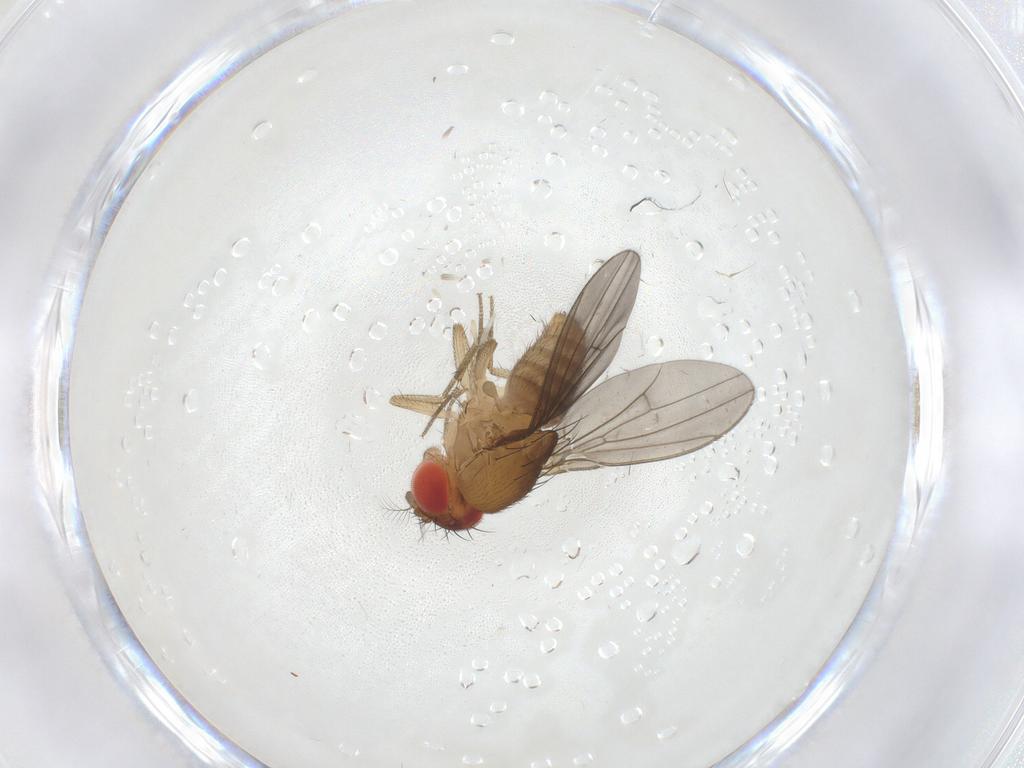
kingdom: Animalia
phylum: Arthropoda
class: Insecta
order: Diptera
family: Drosophilidae
